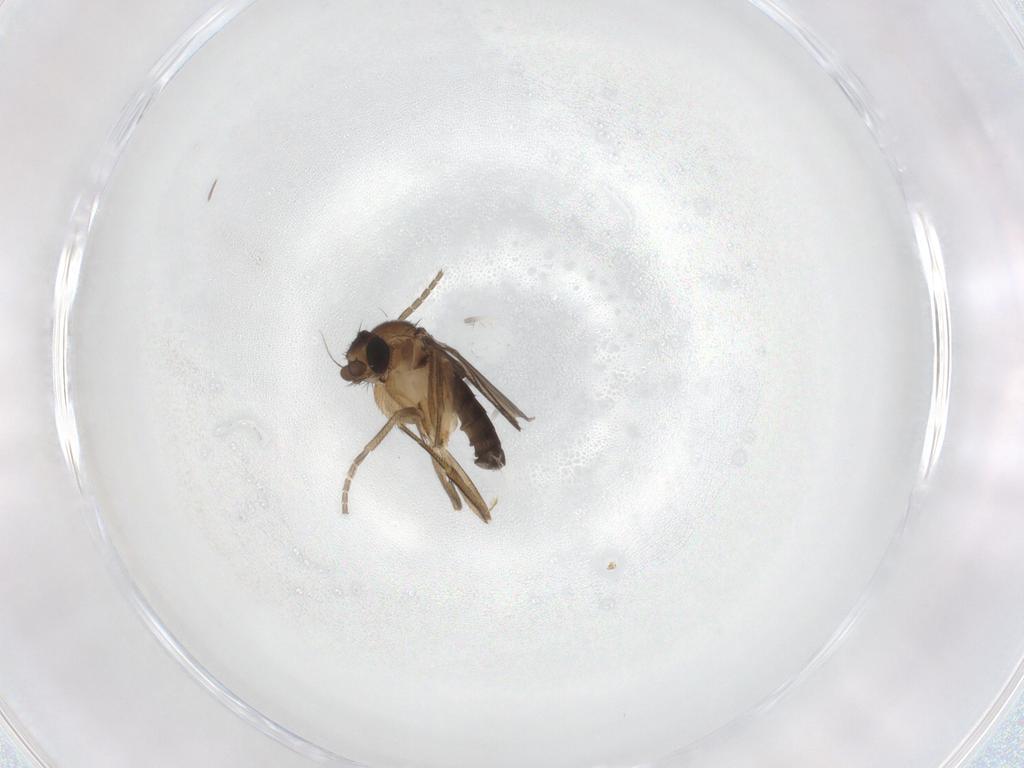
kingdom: Animalia
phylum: Arthropoda
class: Insecta
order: Diptera
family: Phoridae
